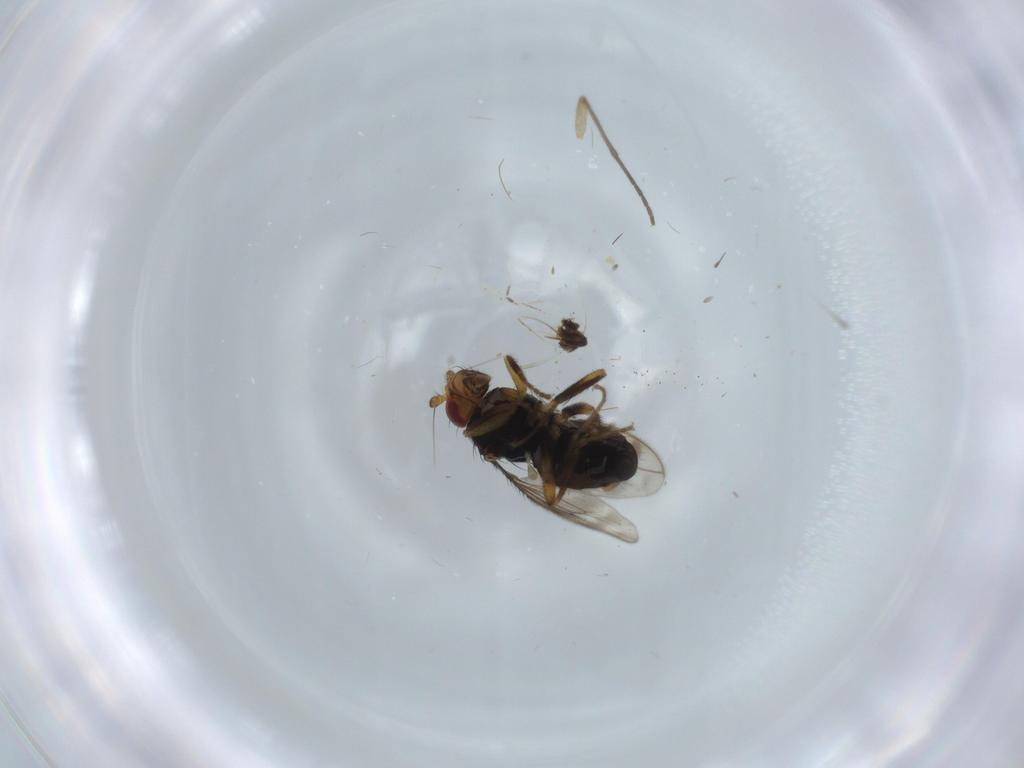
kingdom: Animalia
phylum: Arthropoda
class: Insecta
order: Diptera
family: Sphaeroceridae
